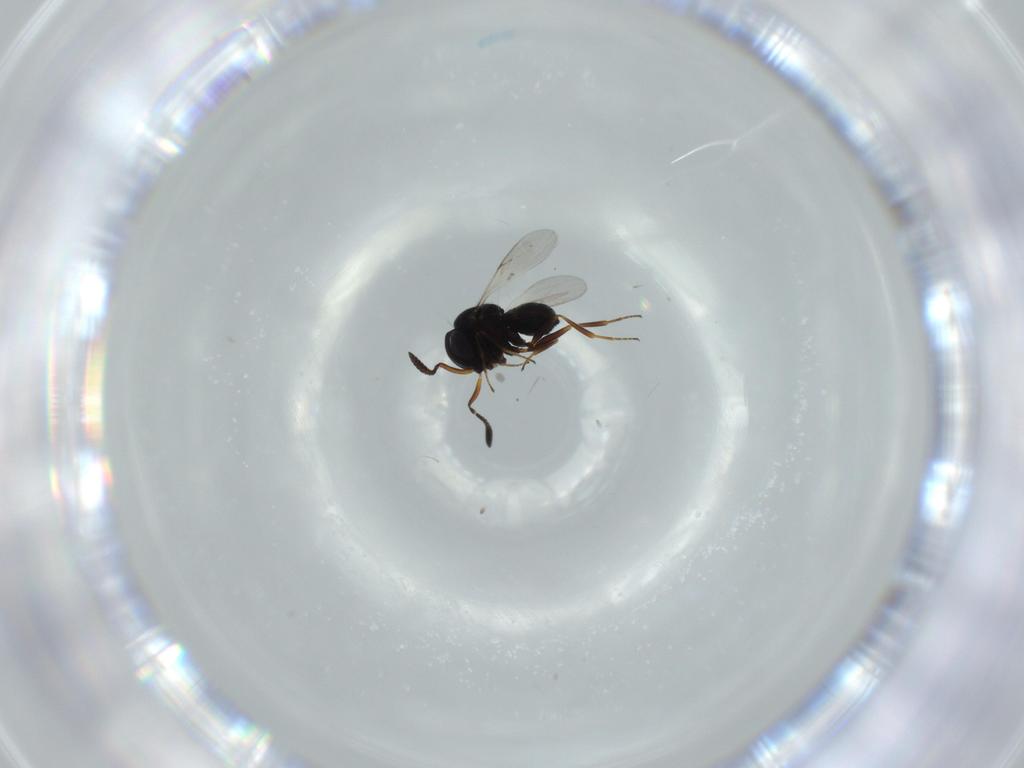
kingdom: Animalia
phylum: Arthropoda
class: Insecta
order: Hymenoptera
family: Scelionidae
